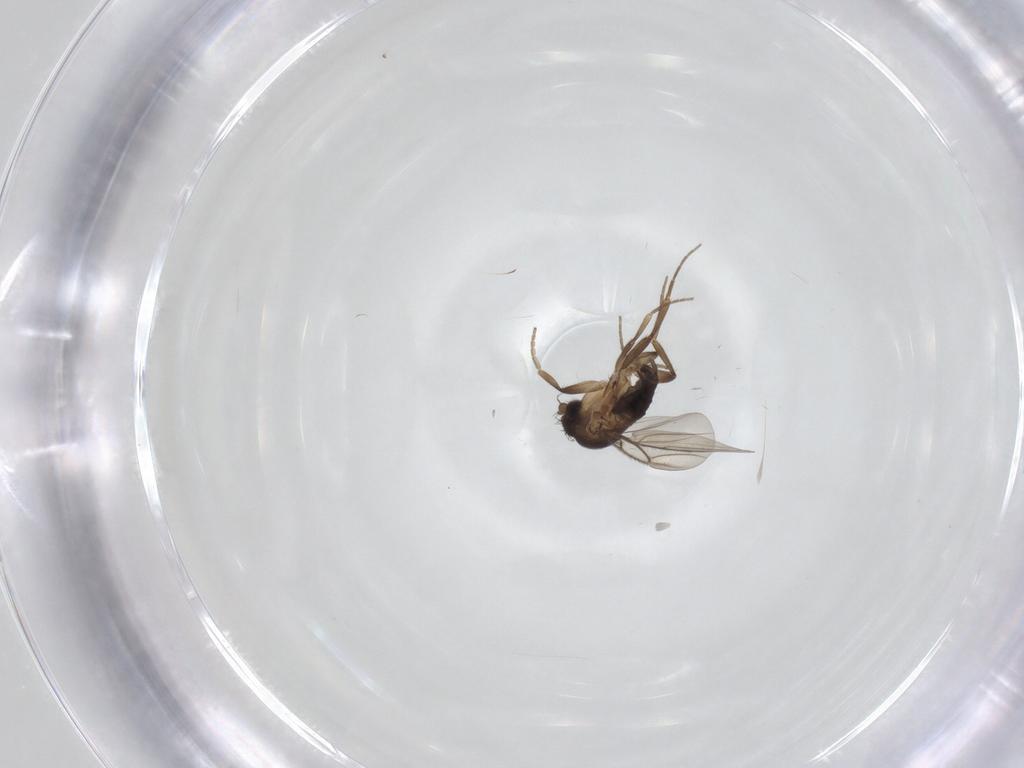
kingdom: Animalia
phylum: Arthropoda
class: Insecta
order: Diptera
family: Phoridae
